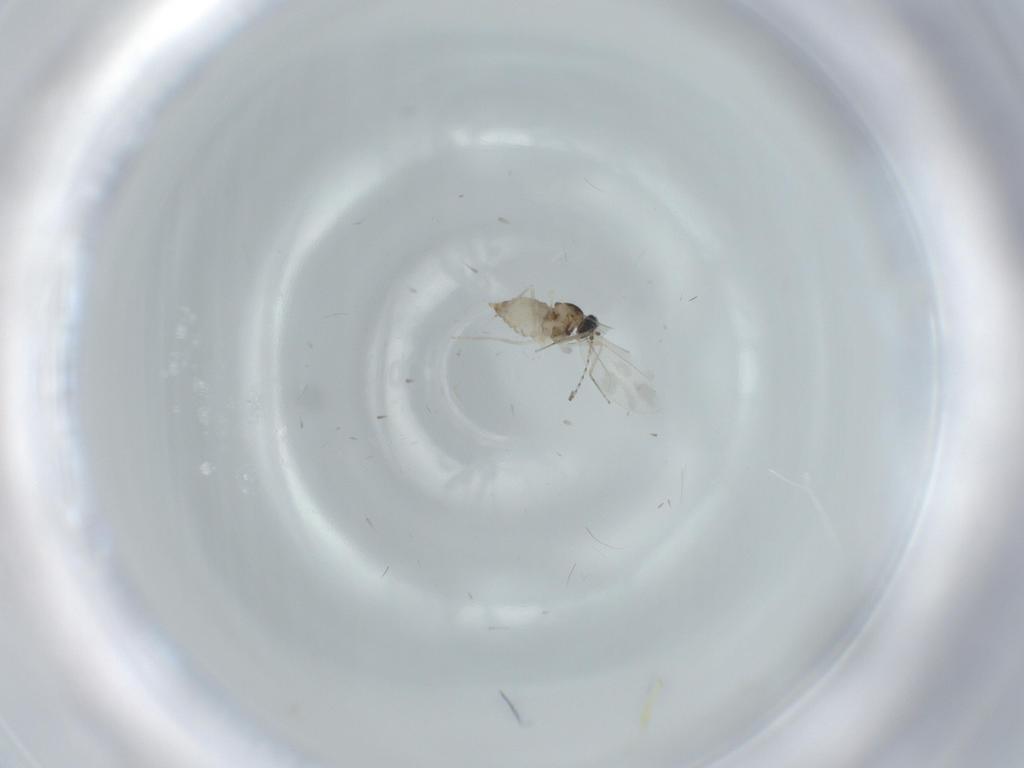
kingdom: Animalia
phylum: Arthropoda
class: Insecta
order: Diptera
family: Cecidomyiidae
